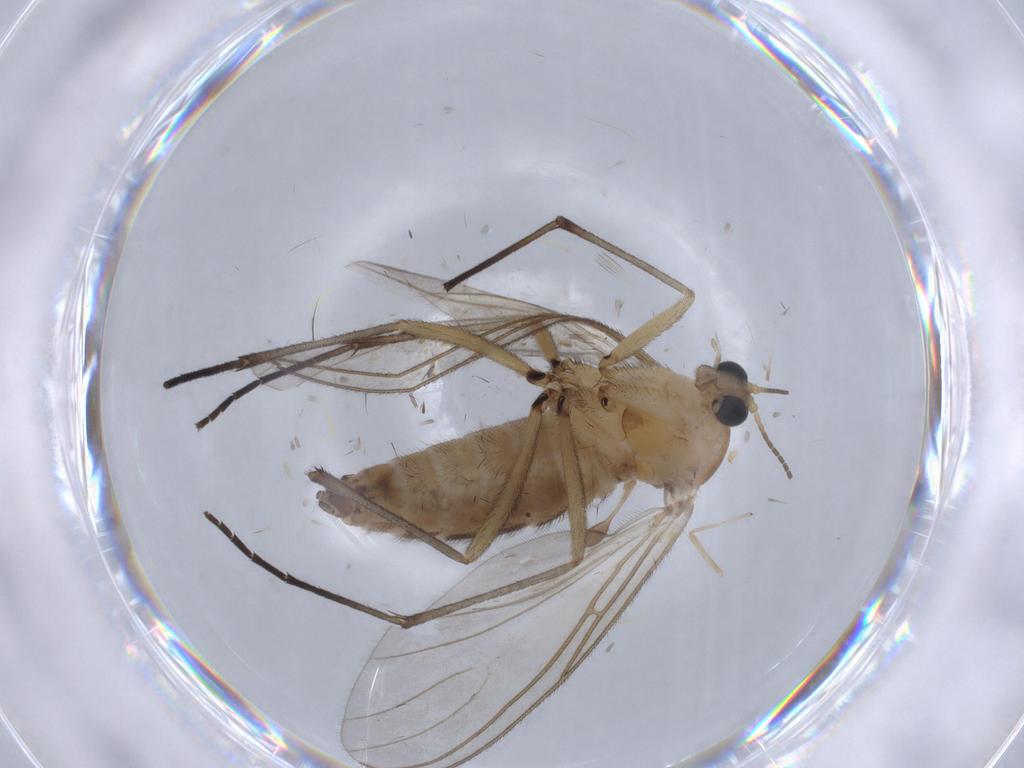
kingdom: Animalia
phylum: Arthropoda
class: Insecta
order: Diptera
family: Sciaridae
